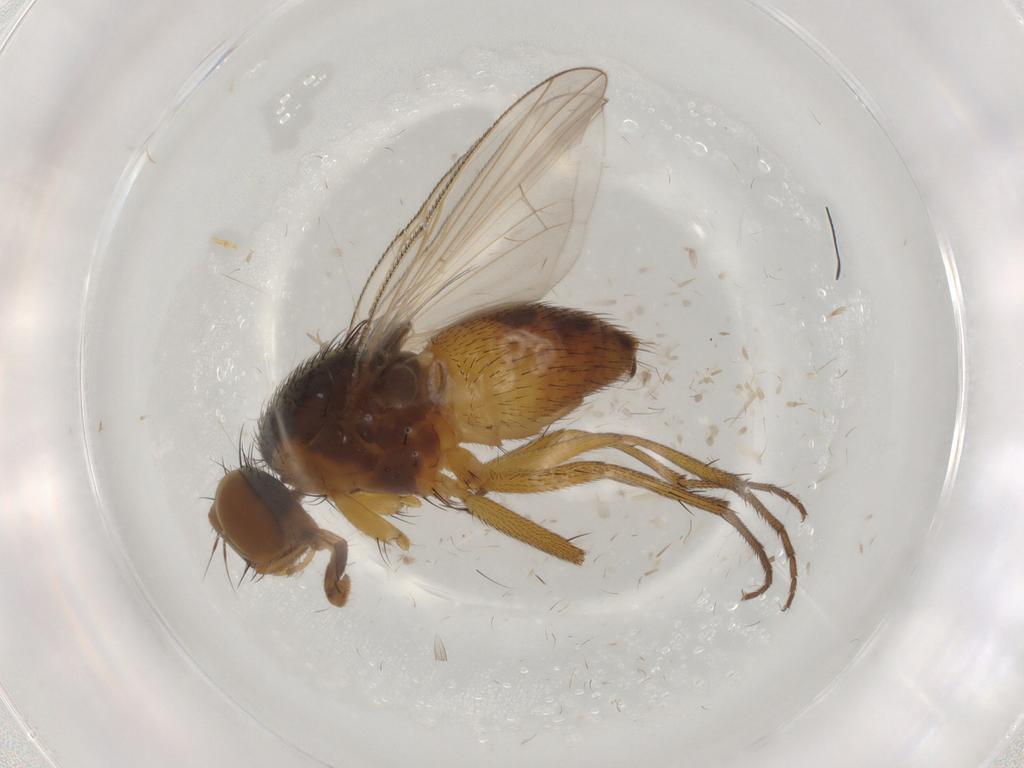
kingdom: Animalia
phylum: Arthropoda
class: Insecta
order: Diptera
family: Muscidae
